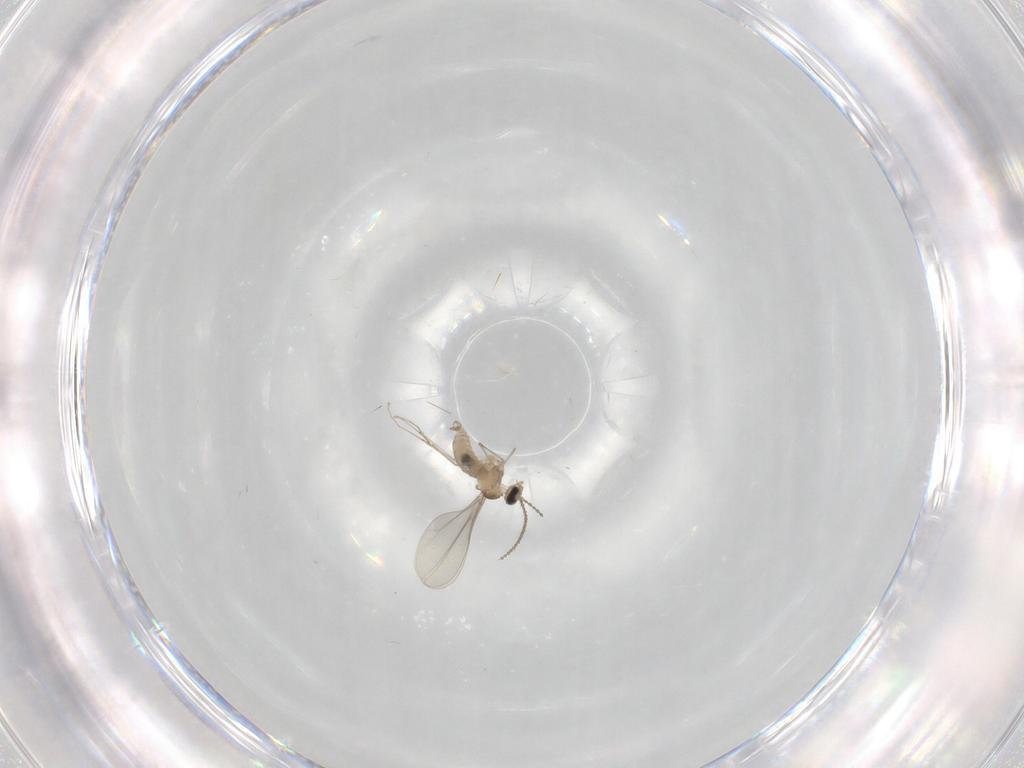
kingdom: Animalia
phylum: Arthropoda
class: Insecta
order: Diptera
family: Cecidomyiidae
